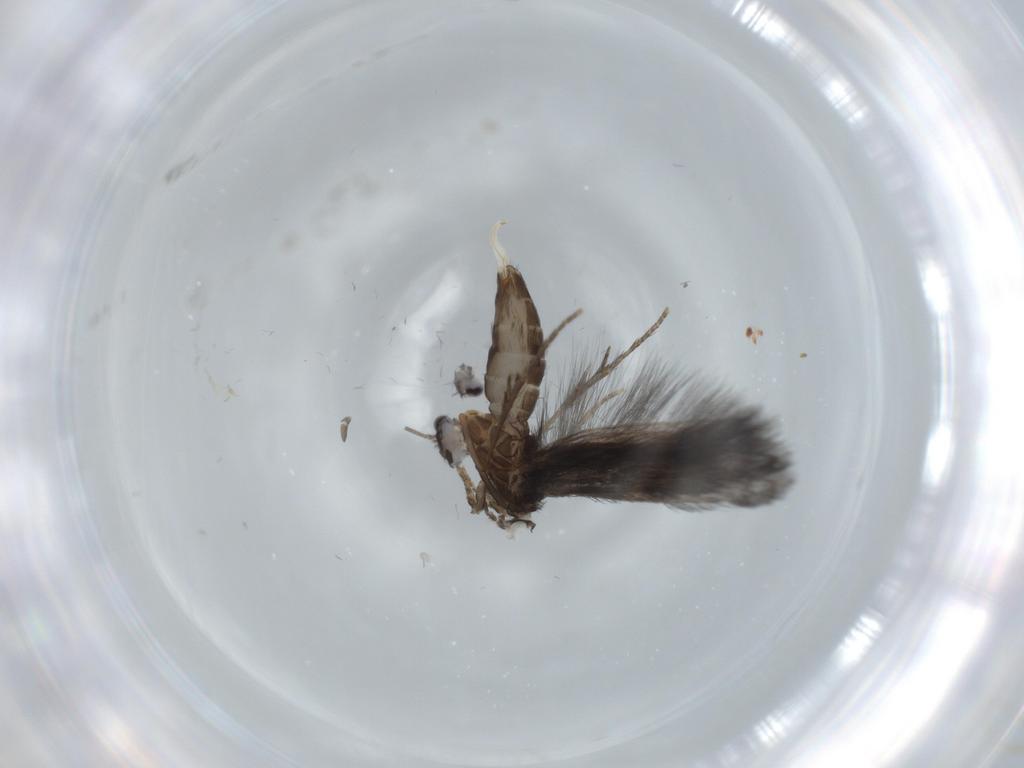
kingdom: Animalia
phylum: Arthropoda
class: Insecta
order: Trichoptera
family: Hydroptilidae
